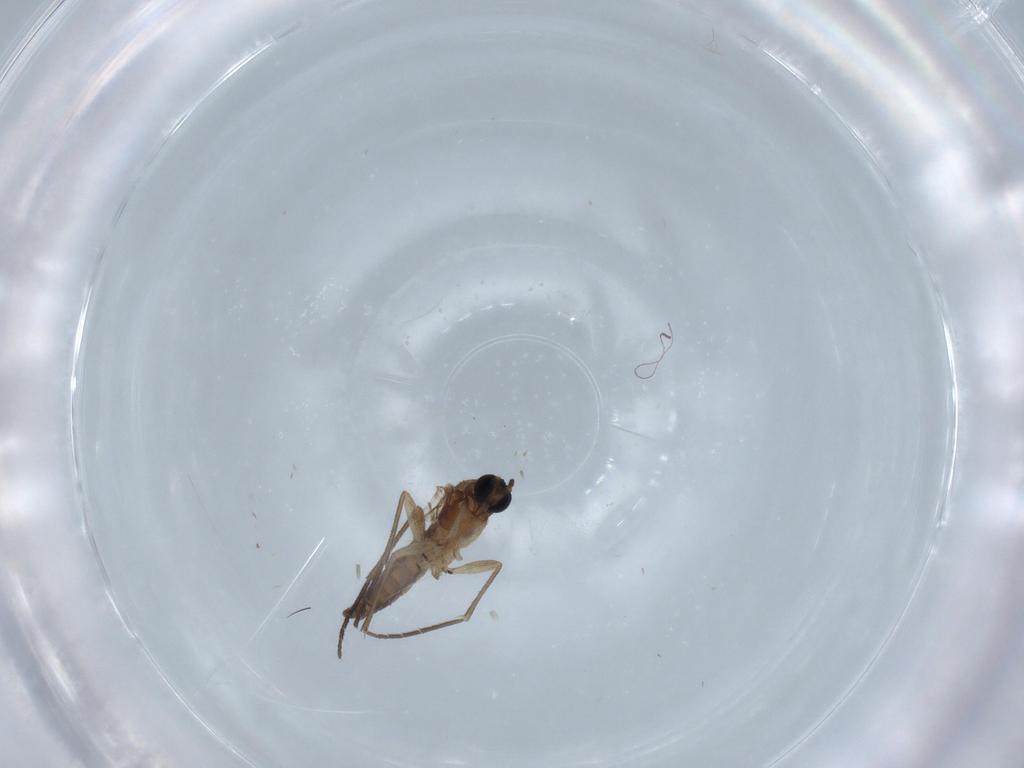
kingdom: Animalia
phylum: Arthropoda
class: Insecta
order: Diptera
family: Sciaridae
